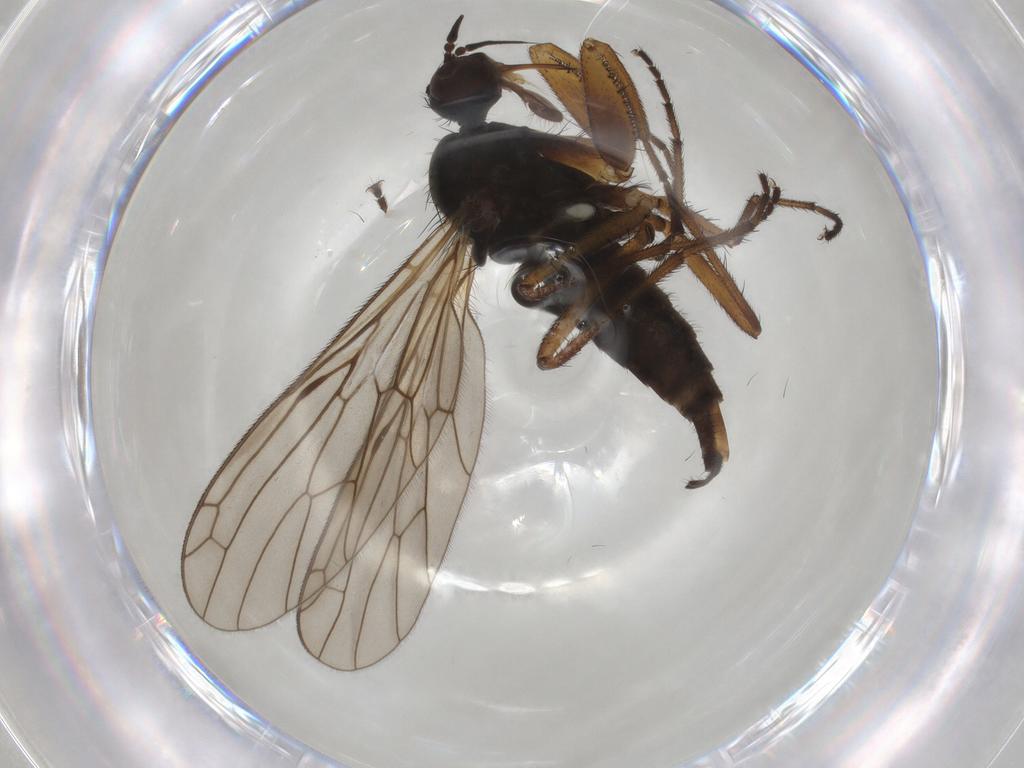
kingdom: Animalia
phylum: Arthropoda
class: Insecta
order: Diptera
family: Empididae
